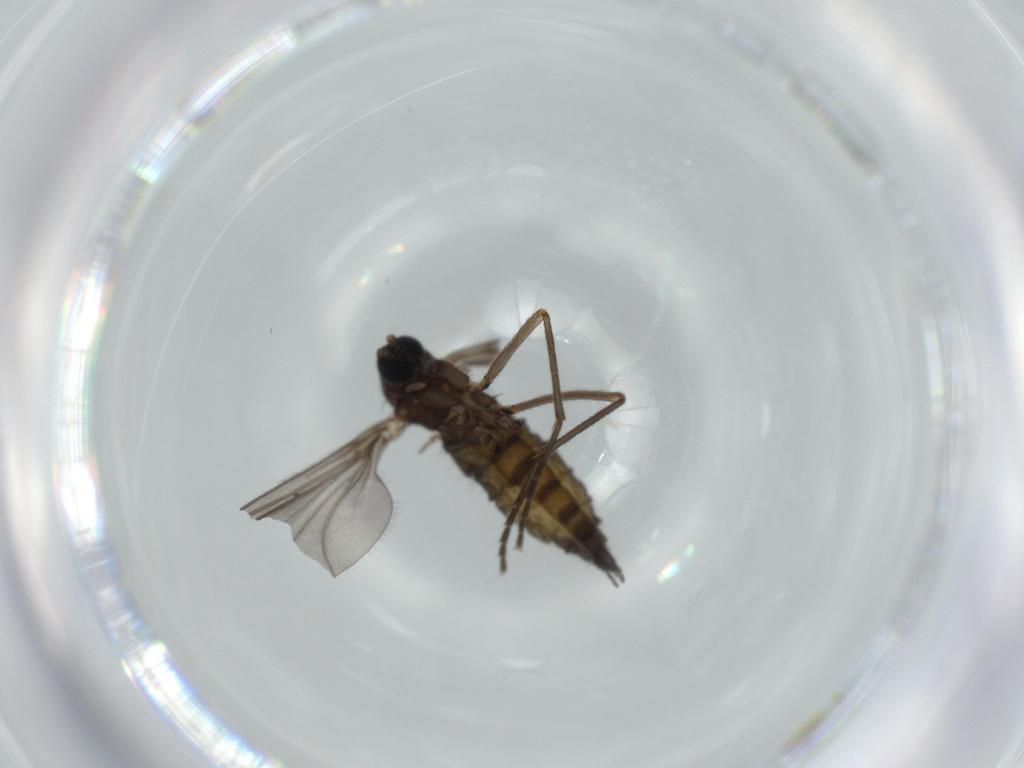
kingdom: Animalia
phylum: Arthropoda
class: Insecta
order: Diptera
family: Sciaridae
